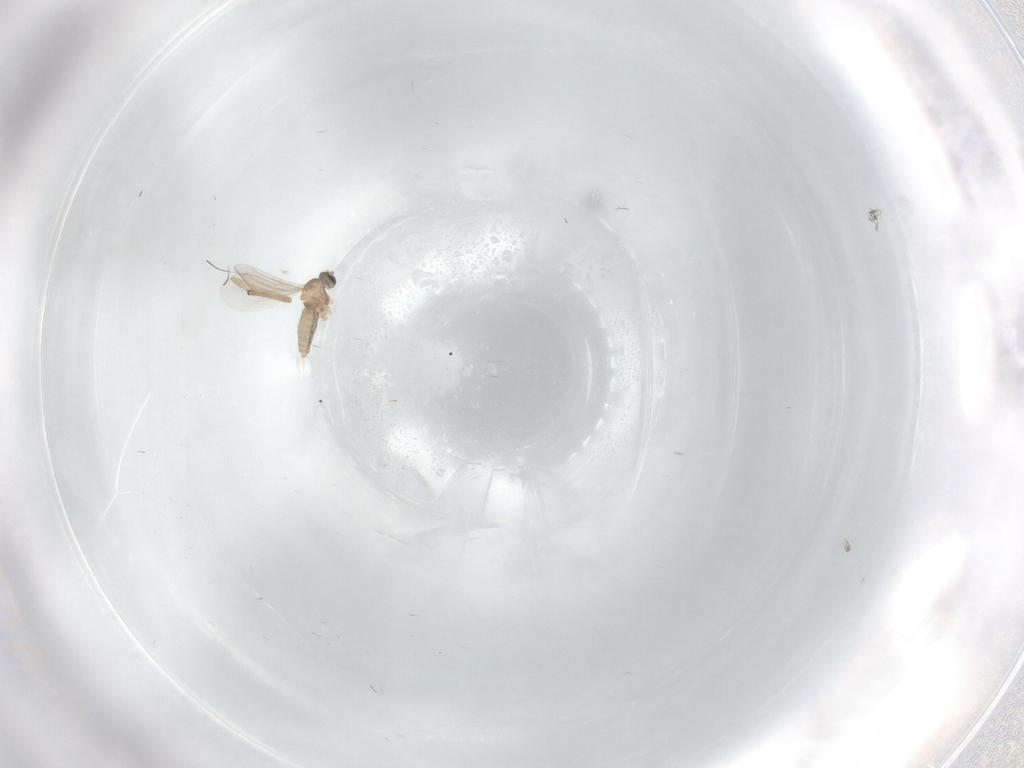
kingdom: Animalia
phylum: Arthropoda
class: Insecta
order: Diptera
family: Chironomidae
